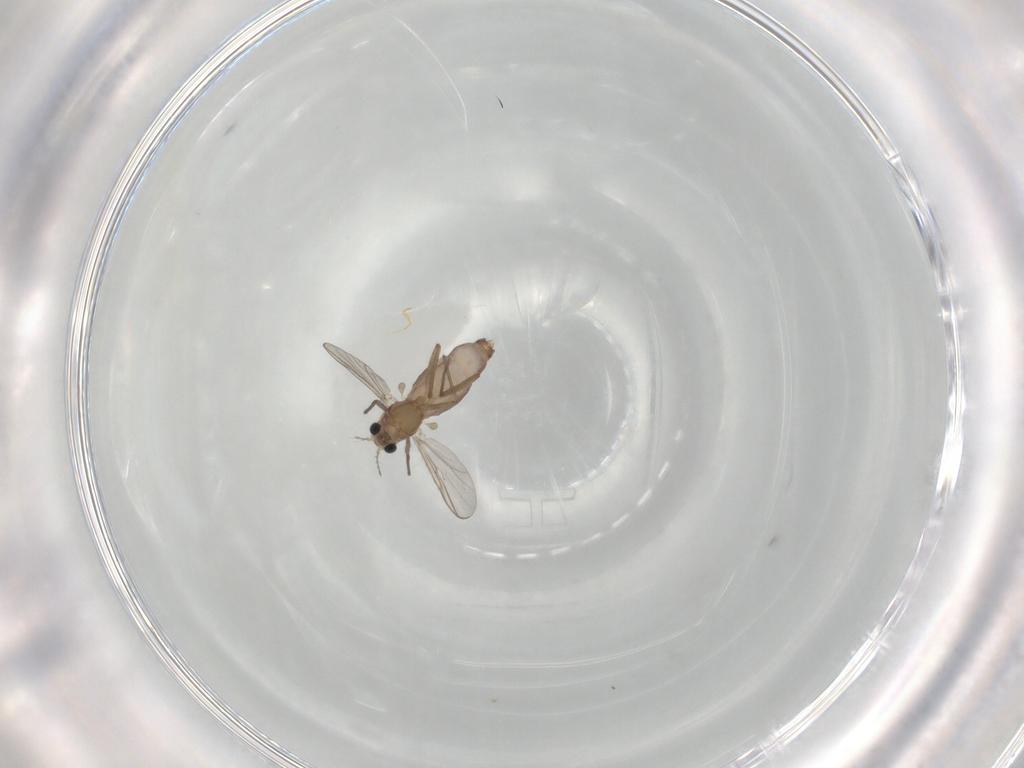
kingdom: Animalia
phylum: Arthropoda
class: Insecta
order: Diptera
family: Chironomidae
